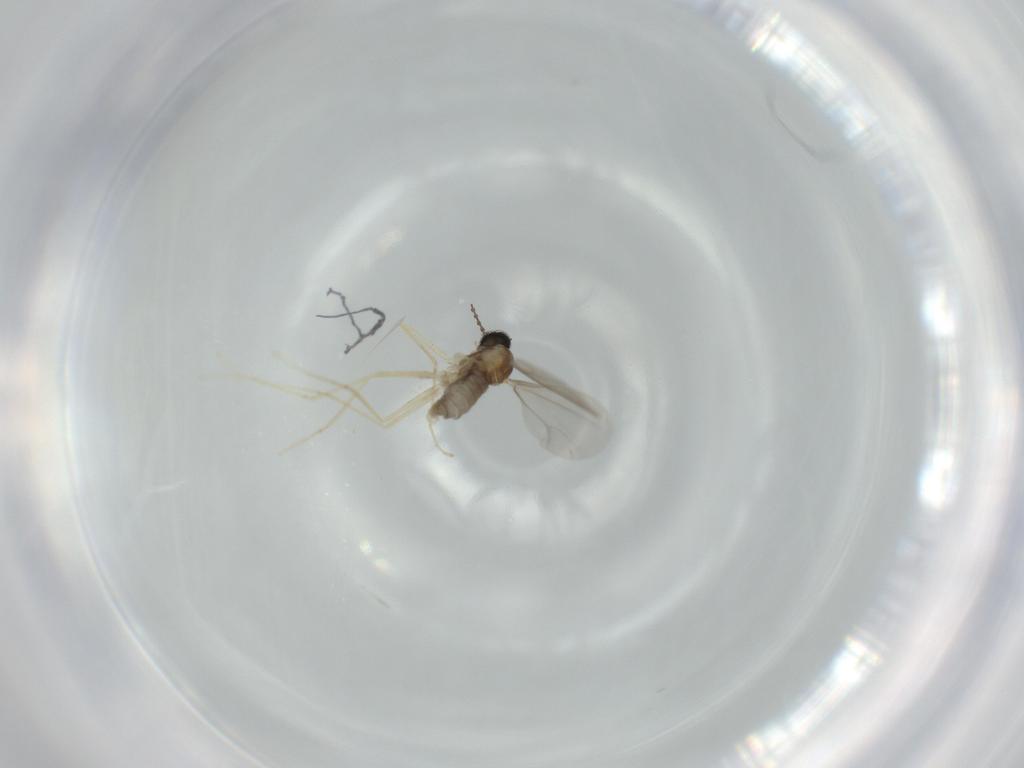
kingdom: Animalia
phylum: Arthropoda
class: Insecta
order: Diptera
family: Cecidomyiidae
